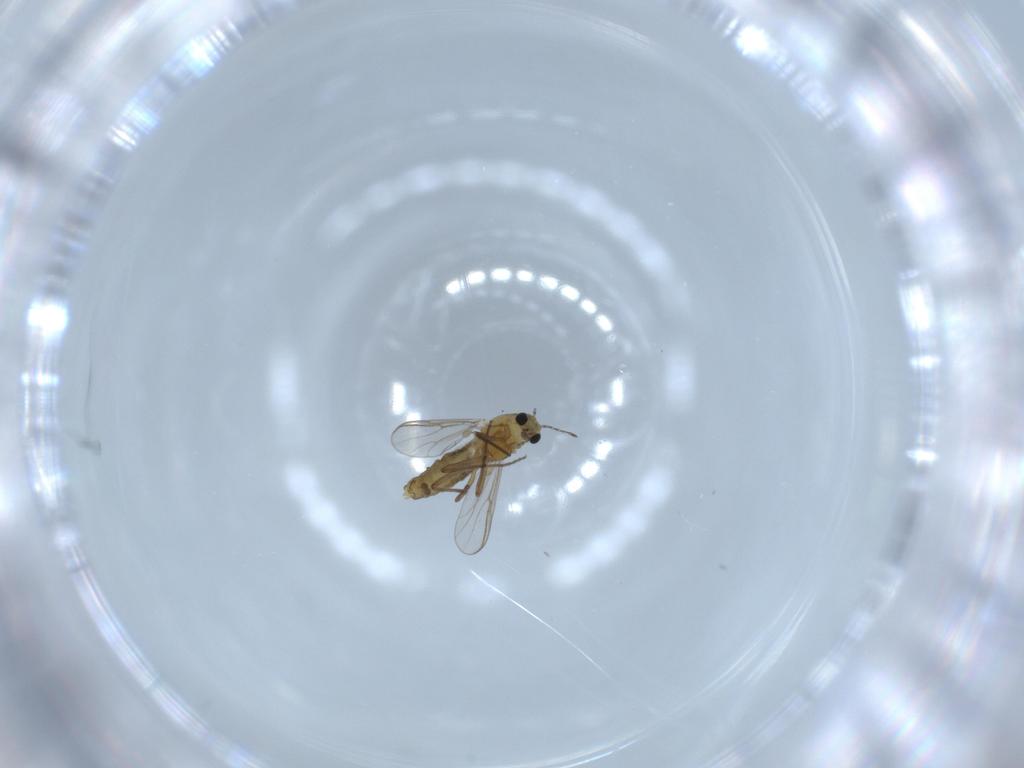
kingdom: Animalia
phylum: Arthropoda
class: Insecta
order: Diptera
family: Chironomidae
